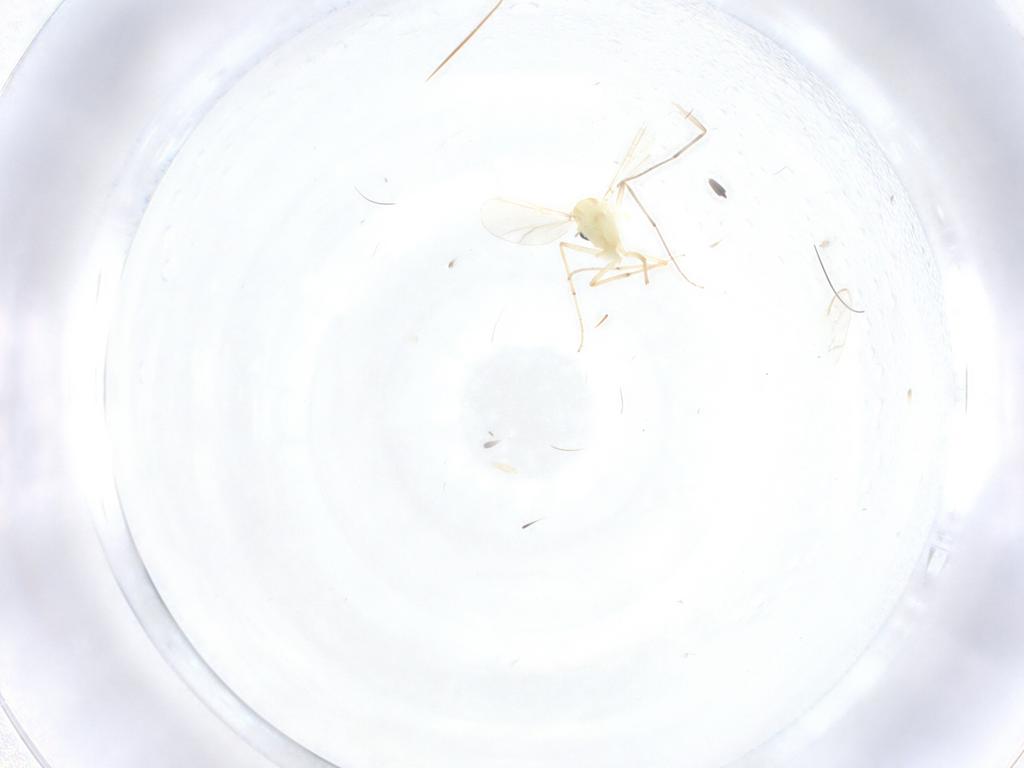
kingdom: Animalia
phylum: Arthropoda
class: Insecta
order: Diptera
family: Chironomidae
